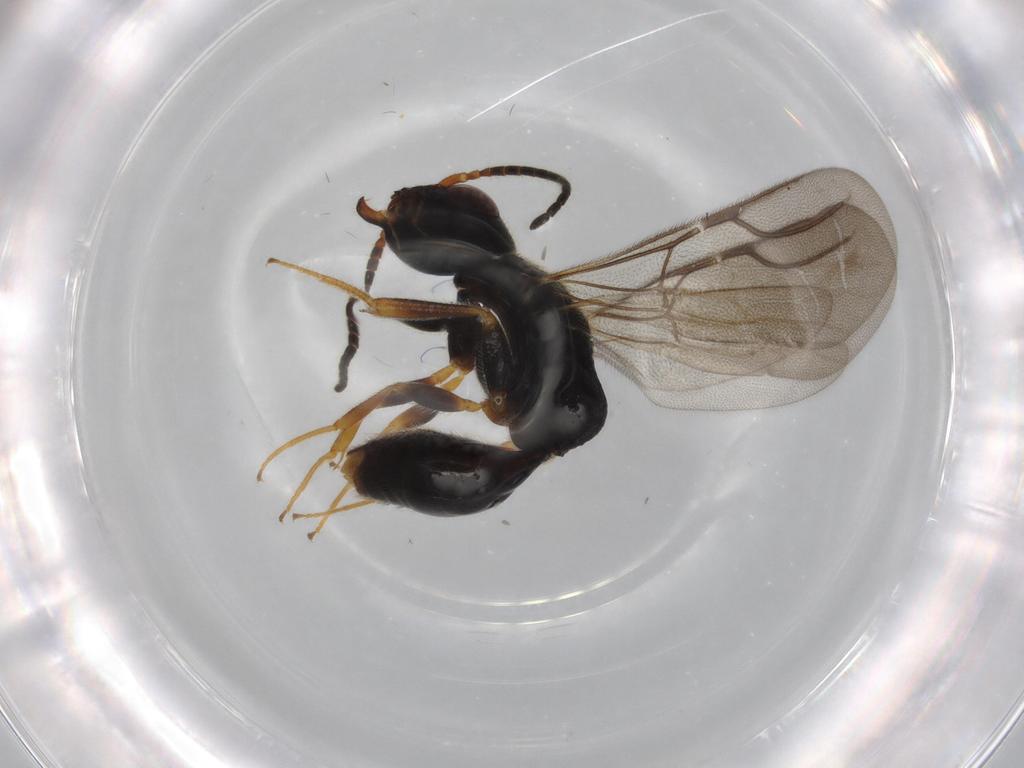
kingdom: Animalia
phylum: Arthropoda
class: Insecta
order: Hymenoptera
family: Bethylidae
